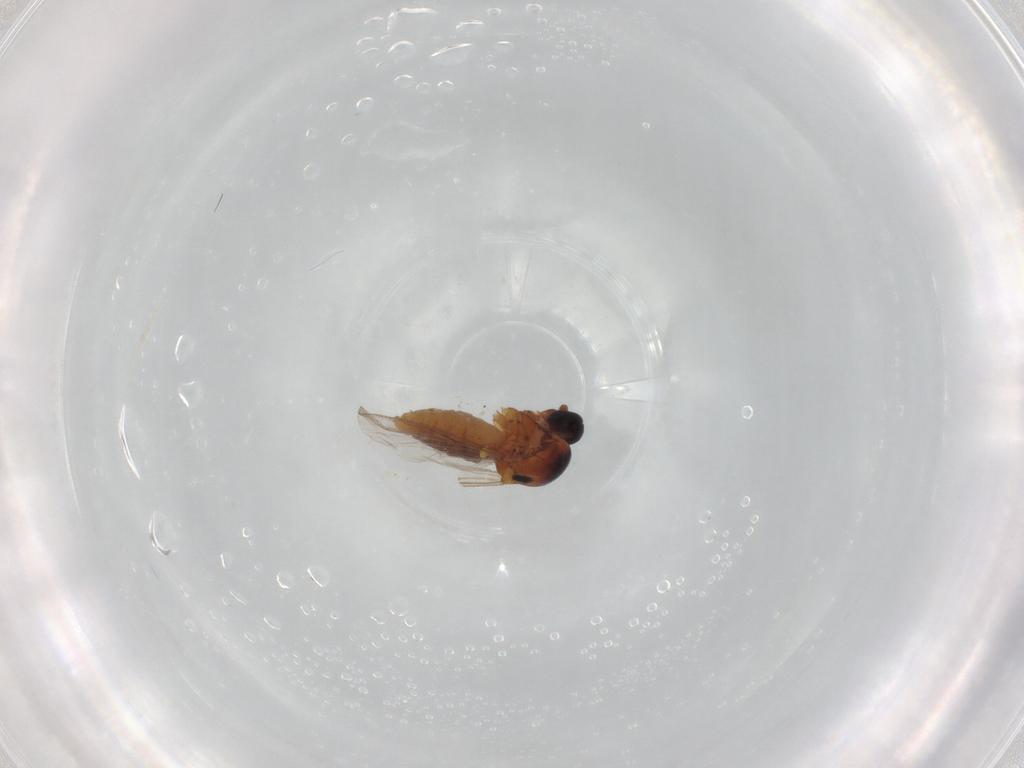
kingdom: Animalia
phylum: Arthropoda
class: Insecta
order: Diptera
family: Ceratopogonidae
